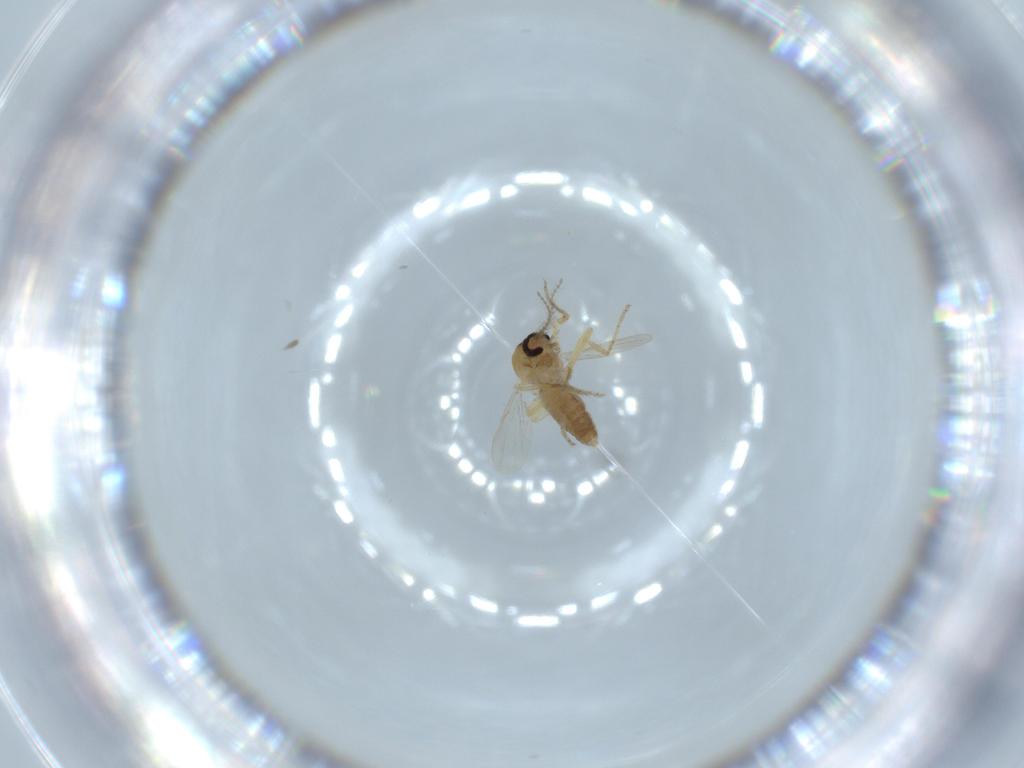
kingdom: Animalia
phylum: Arthropoda
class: Insecta
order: Diptera
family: Ceratopogonidae
